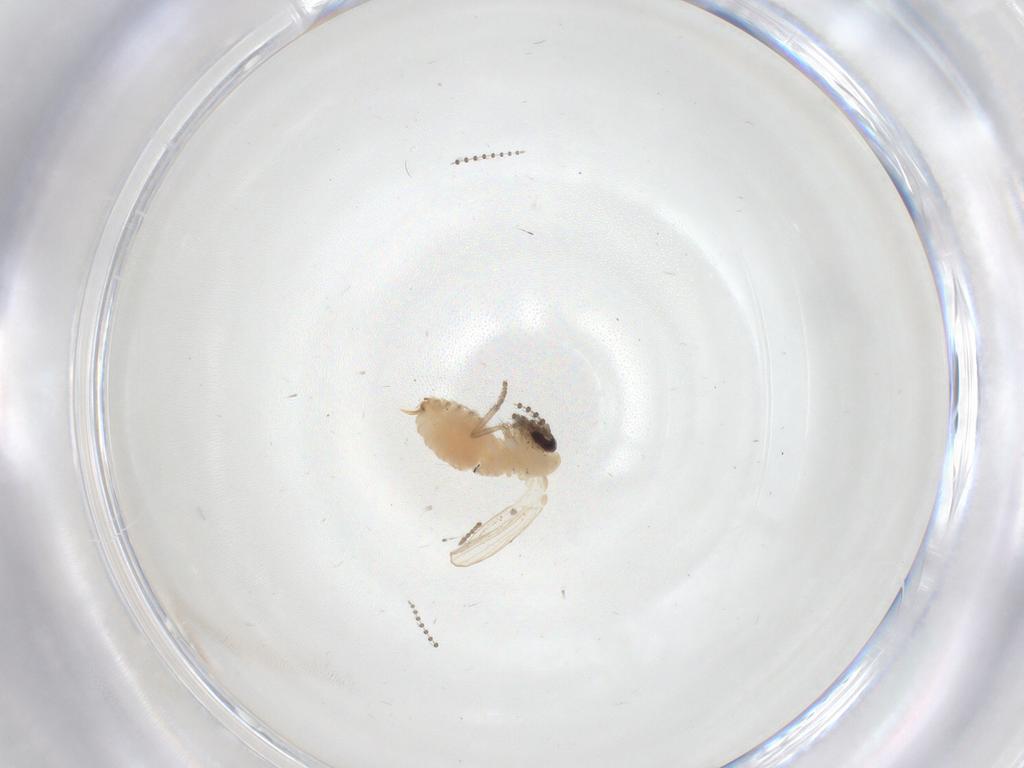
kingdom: Animalia
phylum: Arthropoda
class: Insecta
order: Diptera
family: Psychodidae
